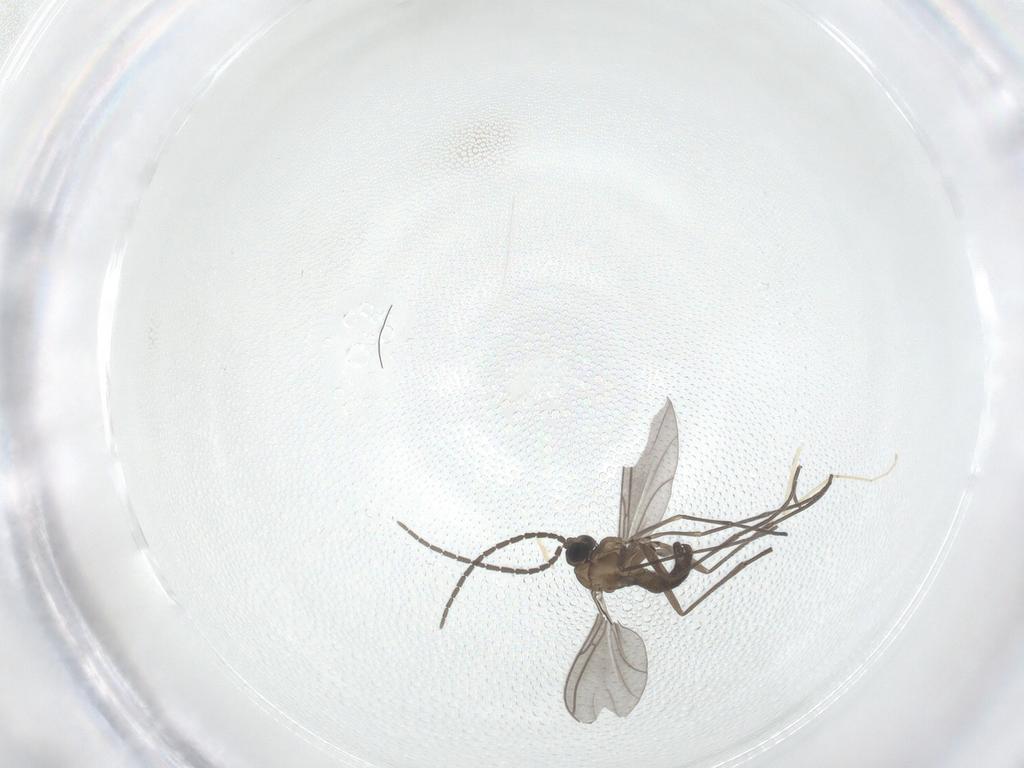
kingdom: Animalia
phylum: Arthropoda
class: Insecta
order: Diptera
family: Sciaridae
